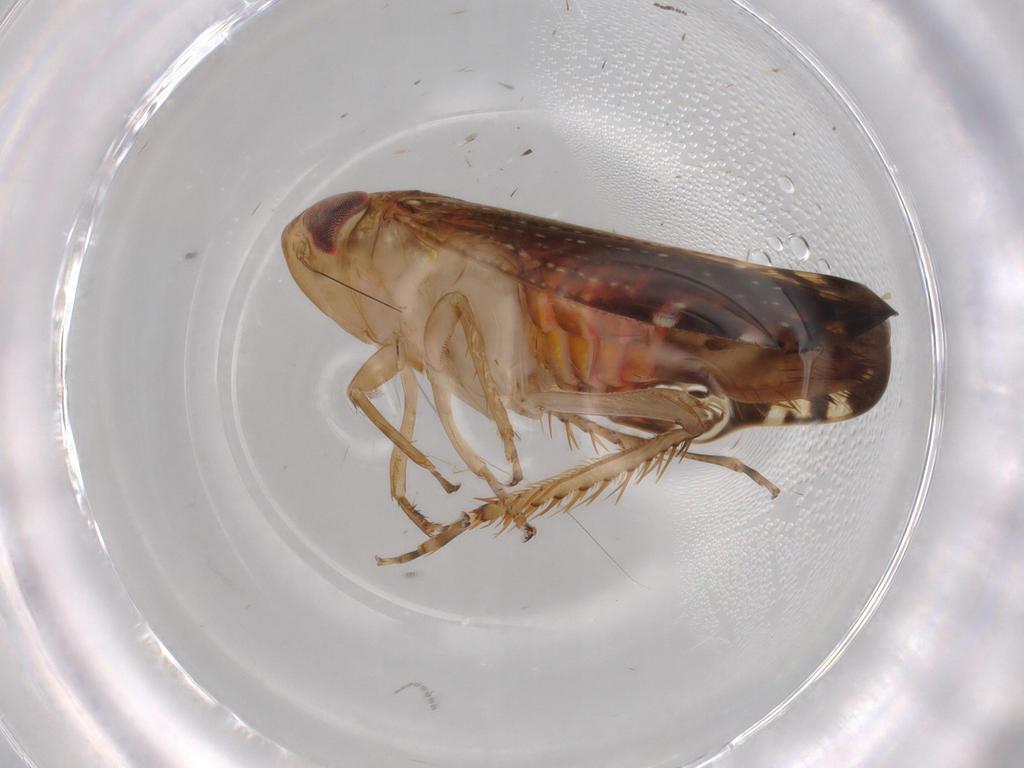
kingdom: Animalia
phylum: Arthropoda
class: Insecta
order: Hemiptera
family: Cicadellidae
